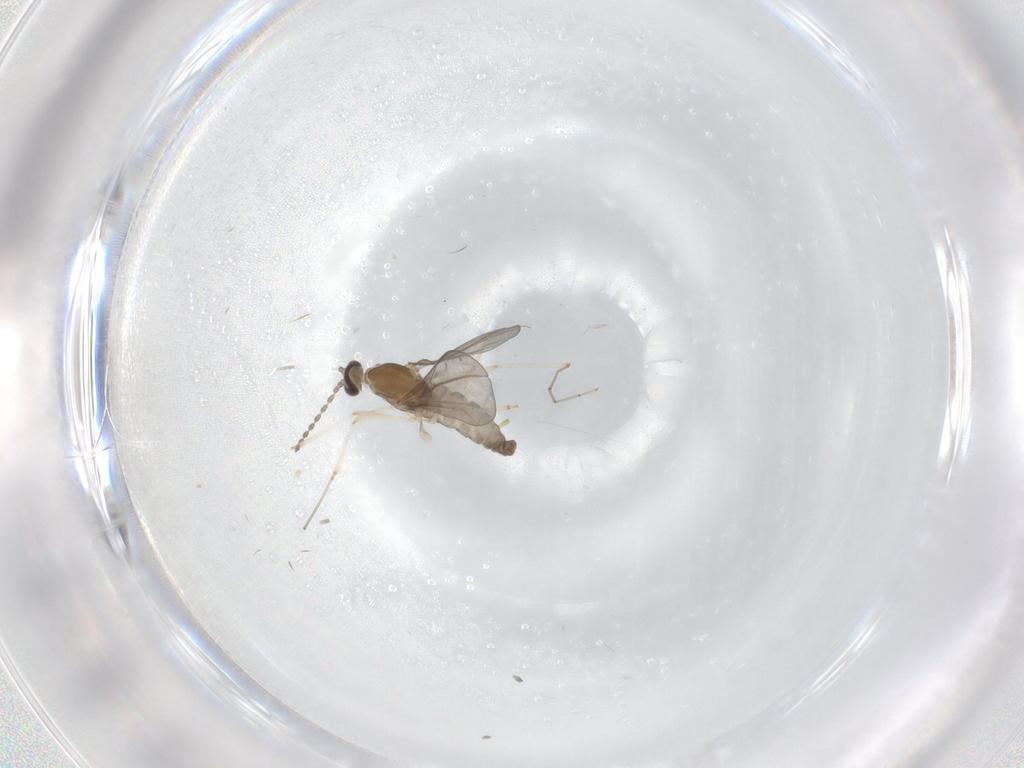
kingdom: Animalia
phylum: Arthropoda
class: Insecta
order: Diptera
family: Cecidomyiidae
